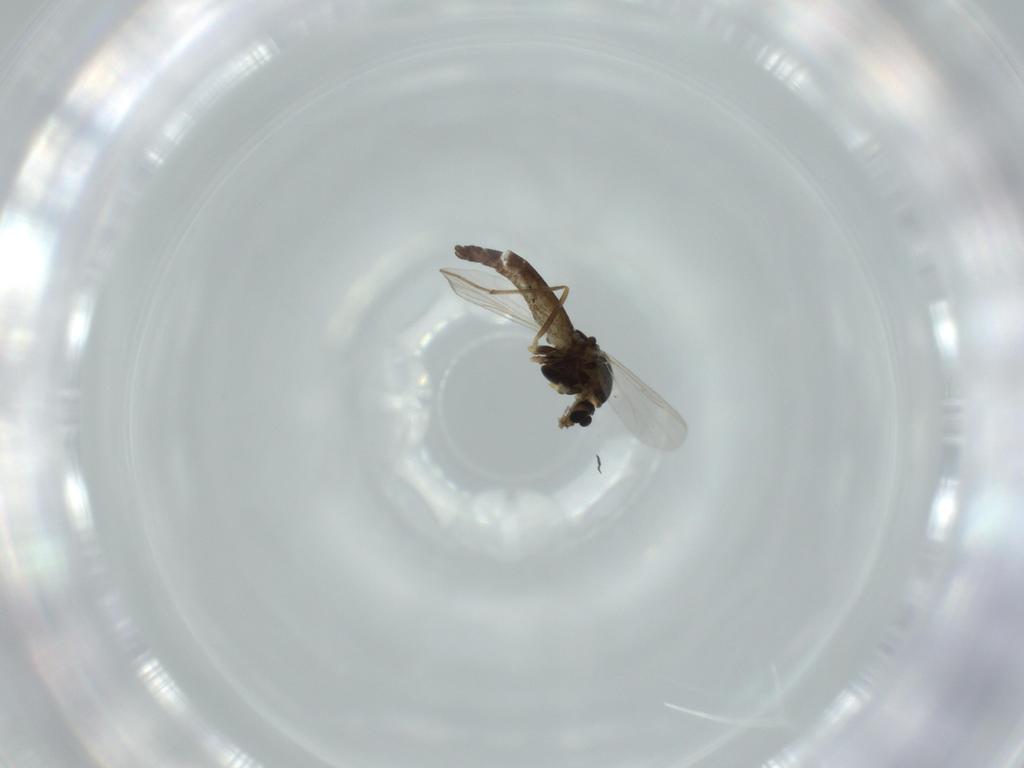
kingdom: Animalia
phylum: Arthropoda
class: Insecta
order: Diptera
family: Chironomidae
